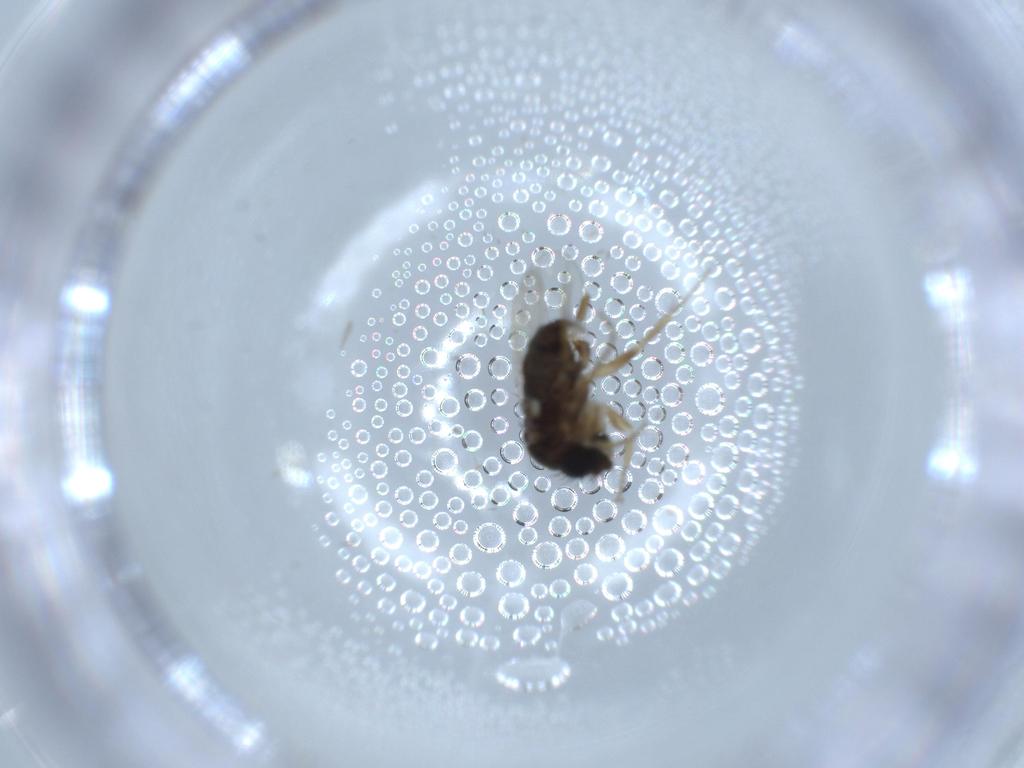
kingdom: Animalia
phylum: Arthropoda
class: Insecta
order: Diptera
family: Phoridae
